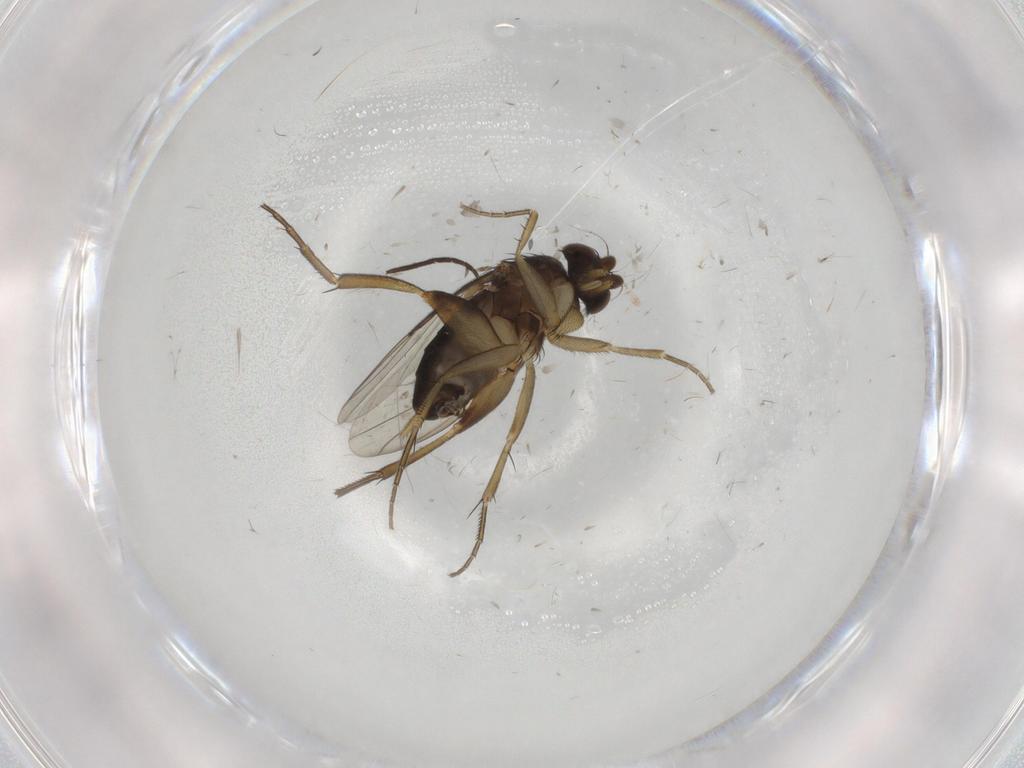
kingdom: Animalia
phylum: Arthropoda
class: Insecta
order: Diptera
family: Phoridae
